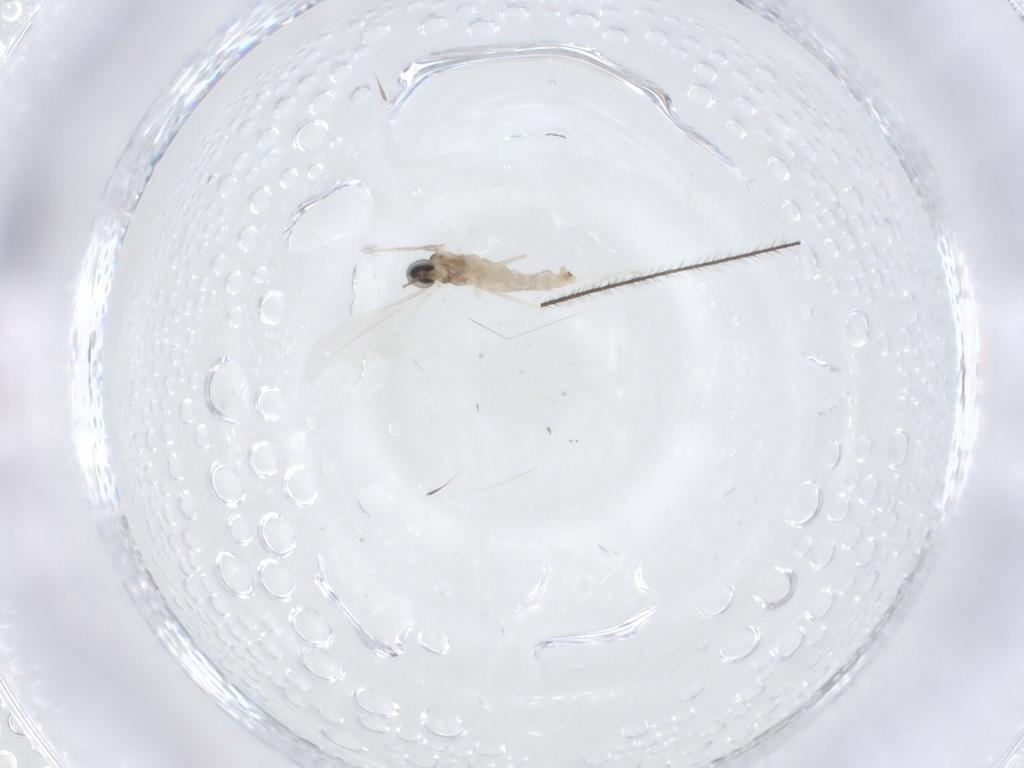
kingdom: Animalia
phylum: Arthropoda
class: Insecta
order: Diptera
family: Cecidomyiidae
